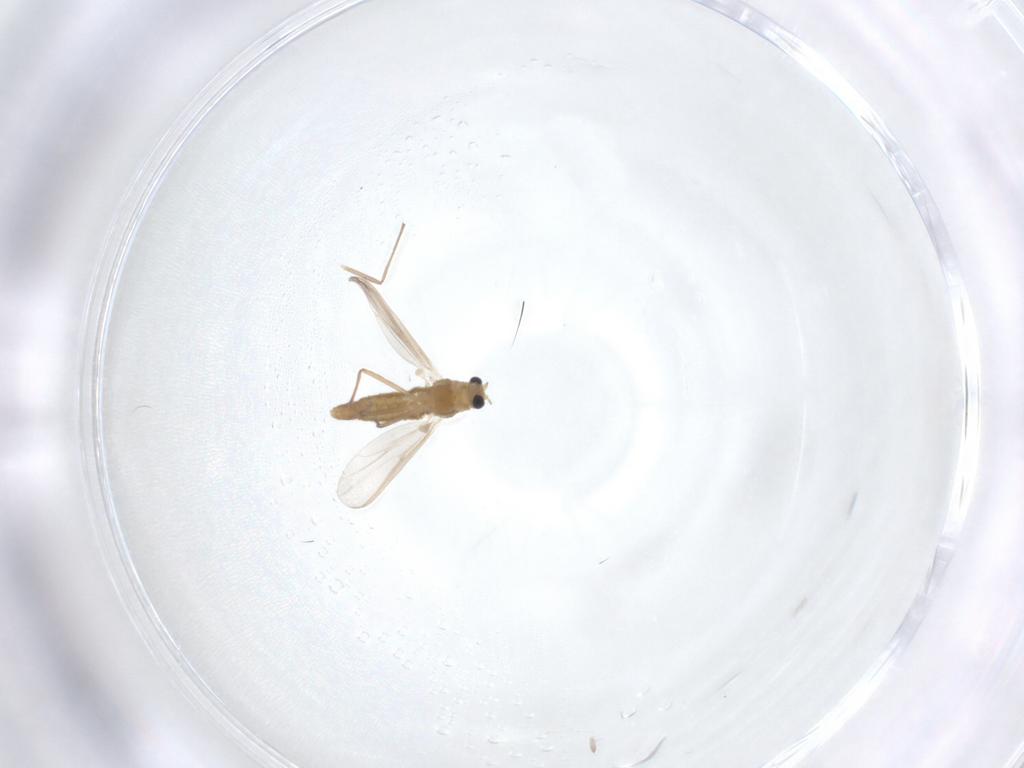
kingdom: Animalia
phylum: Arthropoda
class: Insecta
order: Diptera
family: Chironomidae
